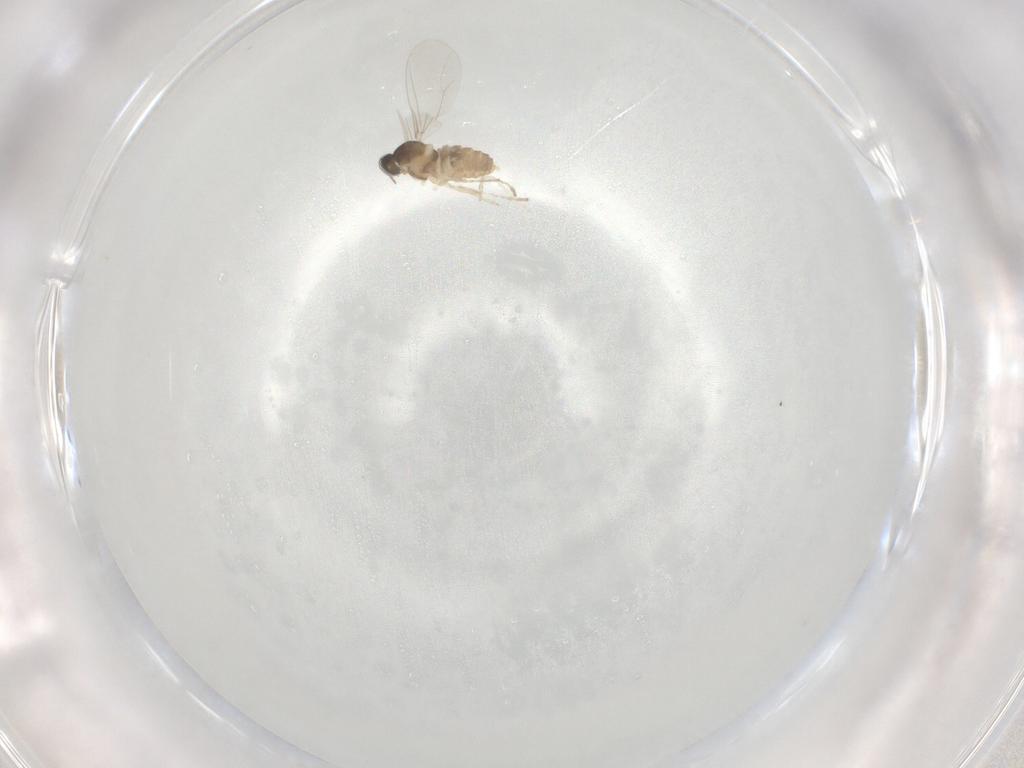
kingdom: Animalia
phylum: Arthropoda
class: Insecta
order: Diptera
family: Cecidomyiidae
